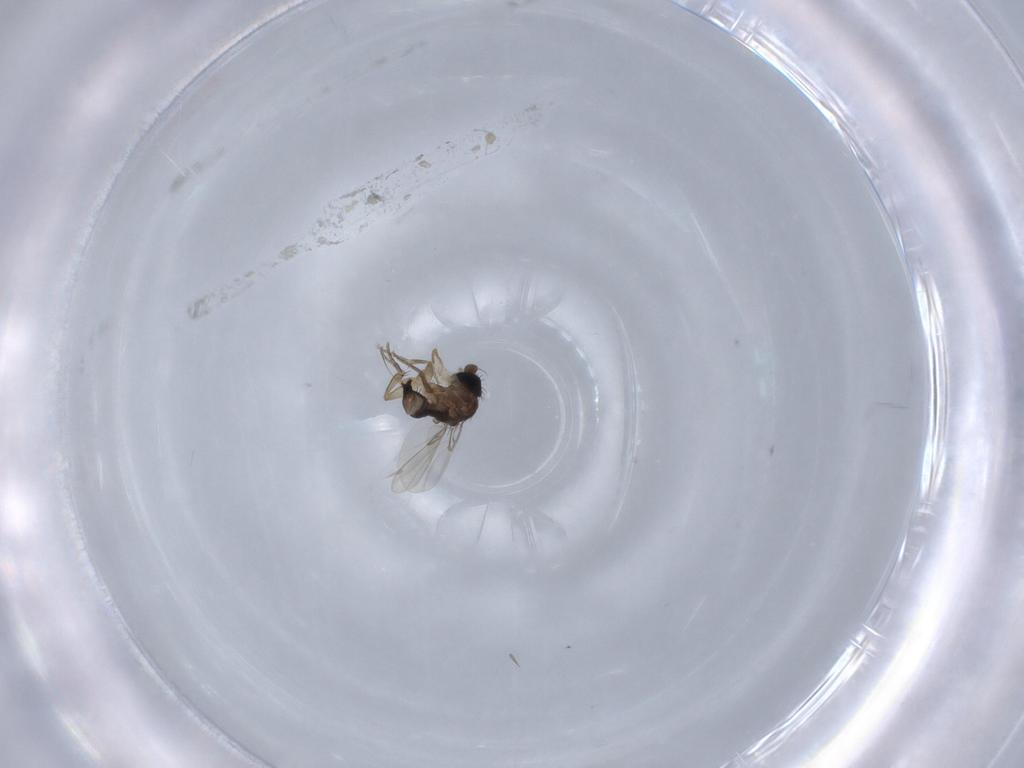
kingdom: Animalia
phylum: Arthropoda
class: Insecta
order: Diptera
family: Phoridae
